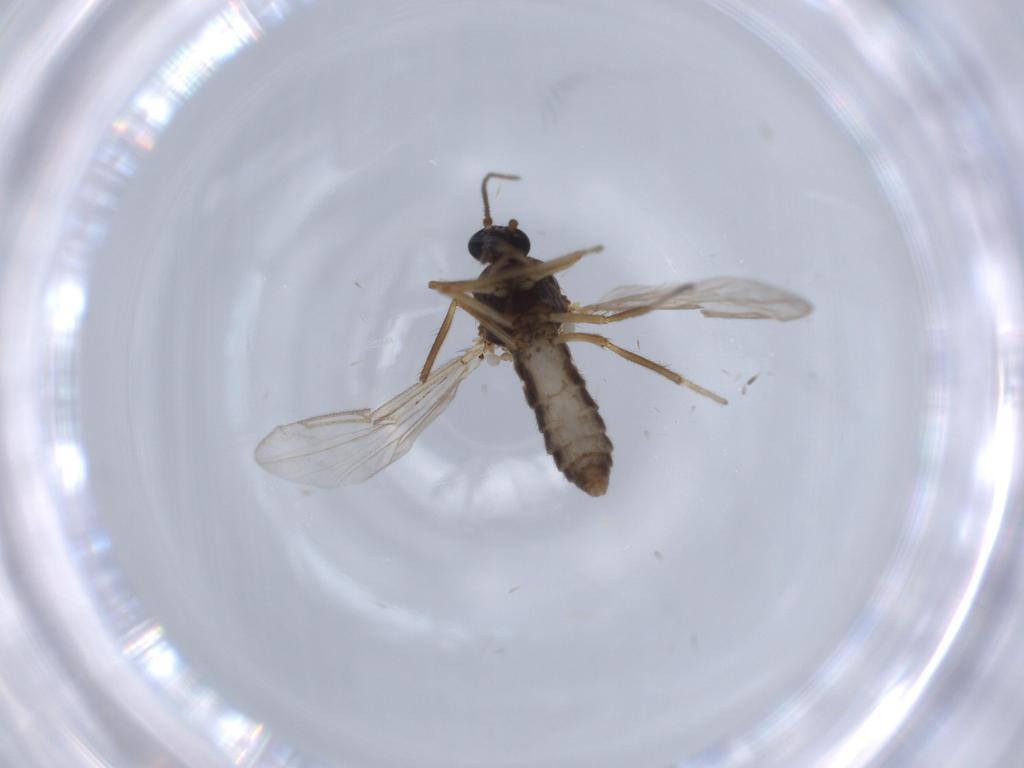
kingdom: Animalia
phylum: Arthropoda
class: Insecta
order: Diptera
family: Ceratopogonidae
